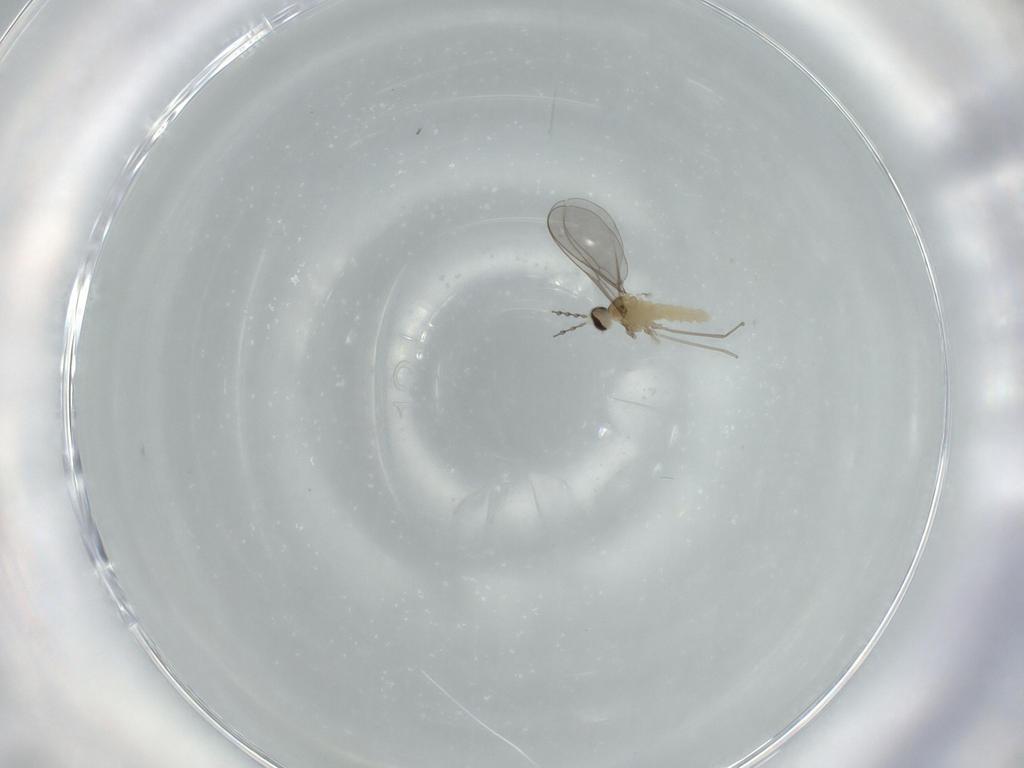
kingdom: Animalia
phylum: Arthropoda
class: Insecta
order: Diptera
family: Cecidomyiidae
